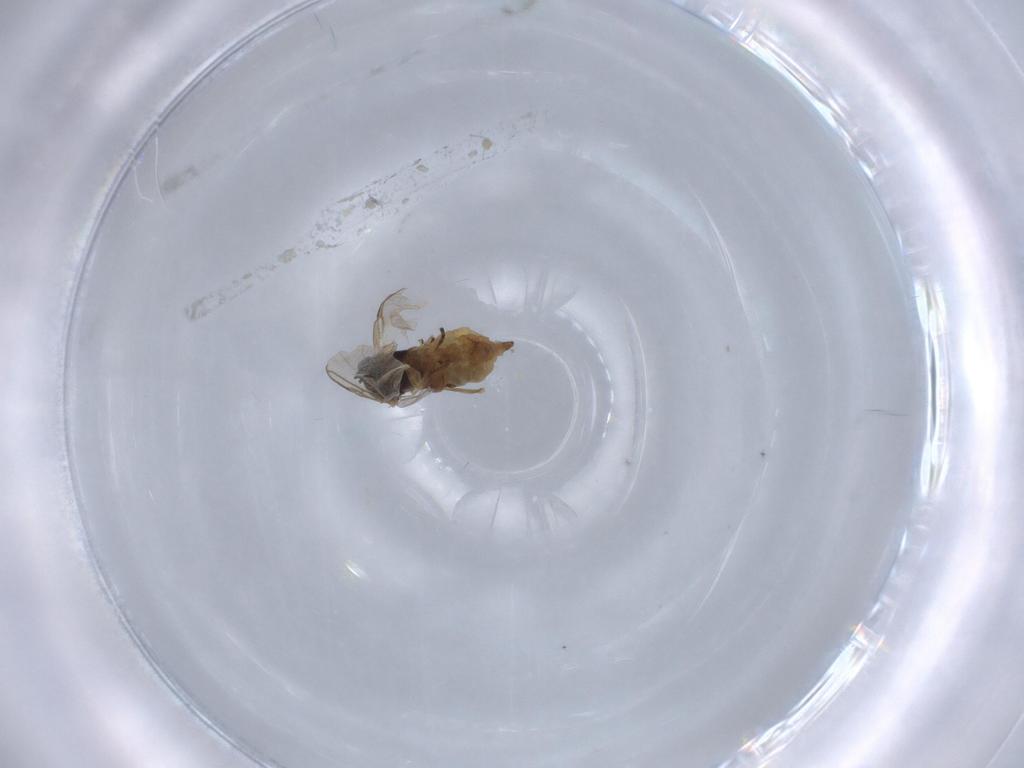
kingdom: Animalia
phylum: Arthropoda
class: Insecta
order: Diptera
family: Sciaridae
